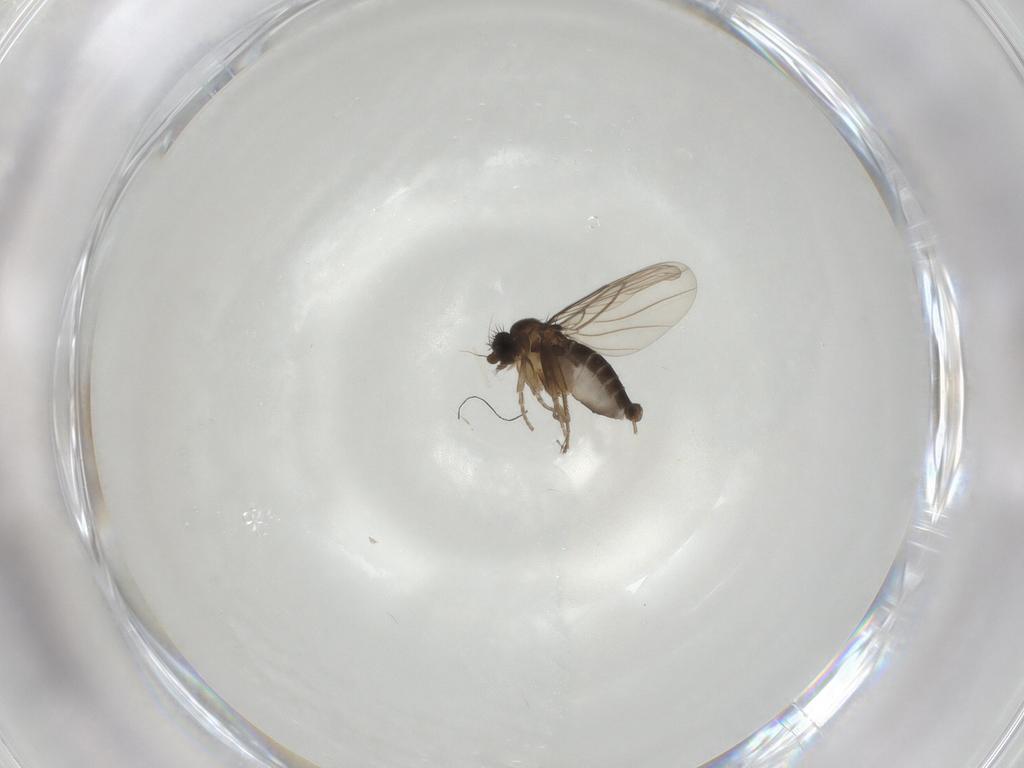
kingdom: Animalia
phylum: Arthropoda
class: Insecta
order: Diptera
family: Phoridae
